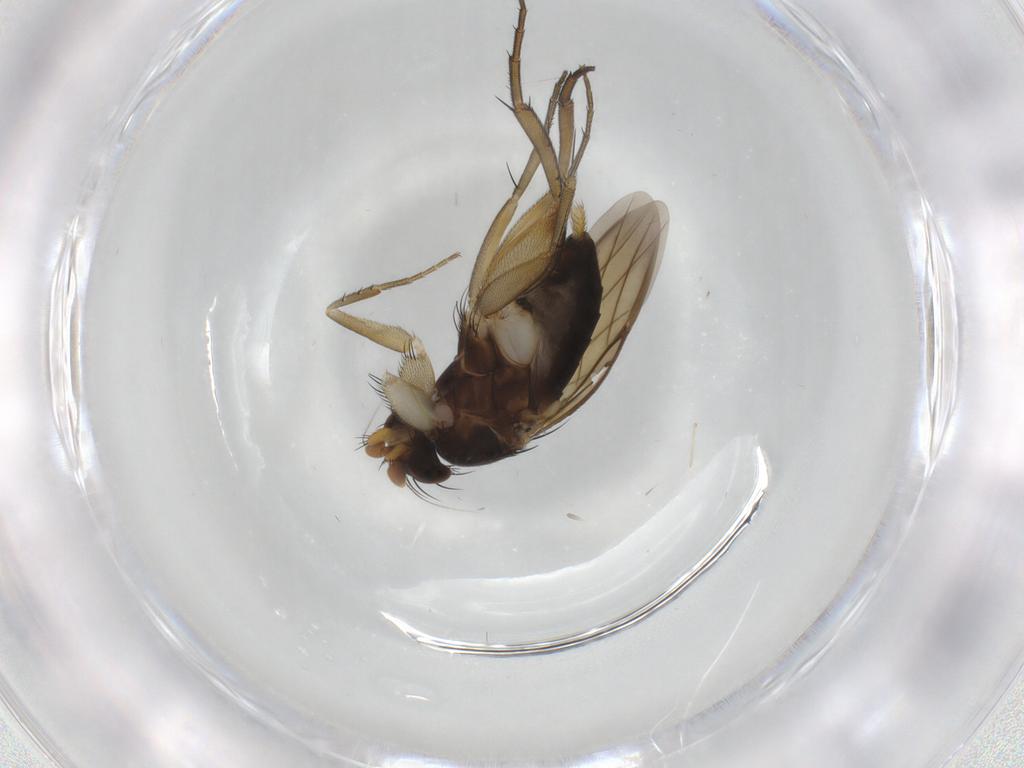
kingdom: Animalia
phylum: Arthropoda
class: Insecta
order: Diptera
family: Phoridae
